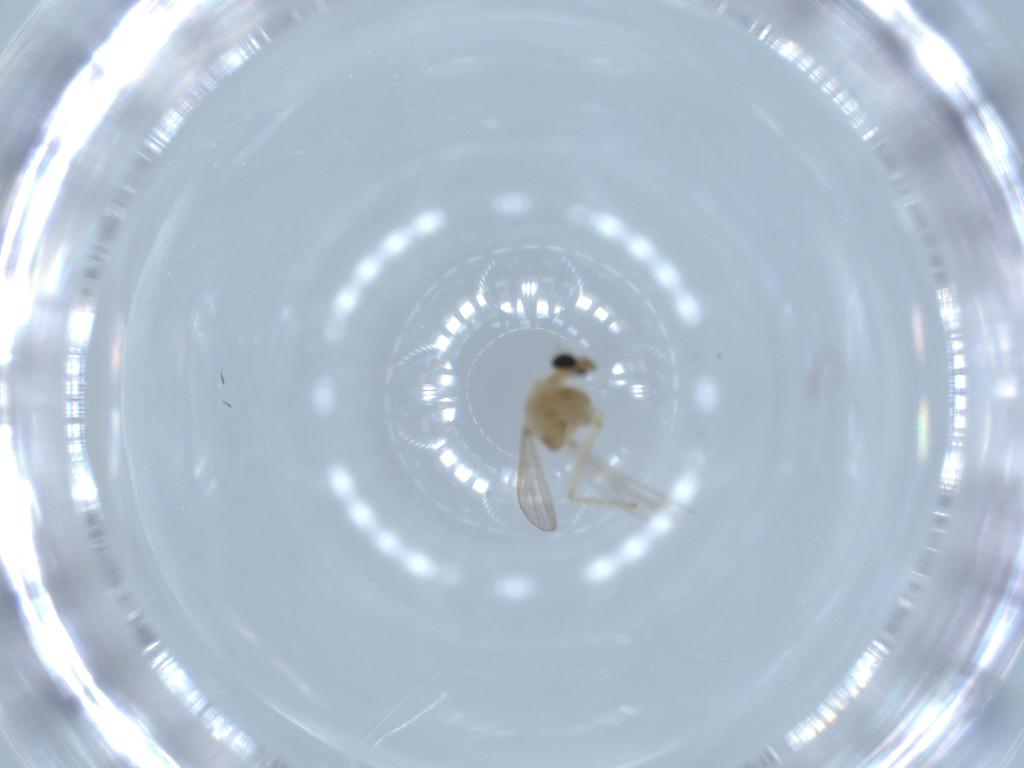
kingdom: Animalia
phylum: Arthropoda
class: Insecta
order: Diptera
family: Chironomidae
